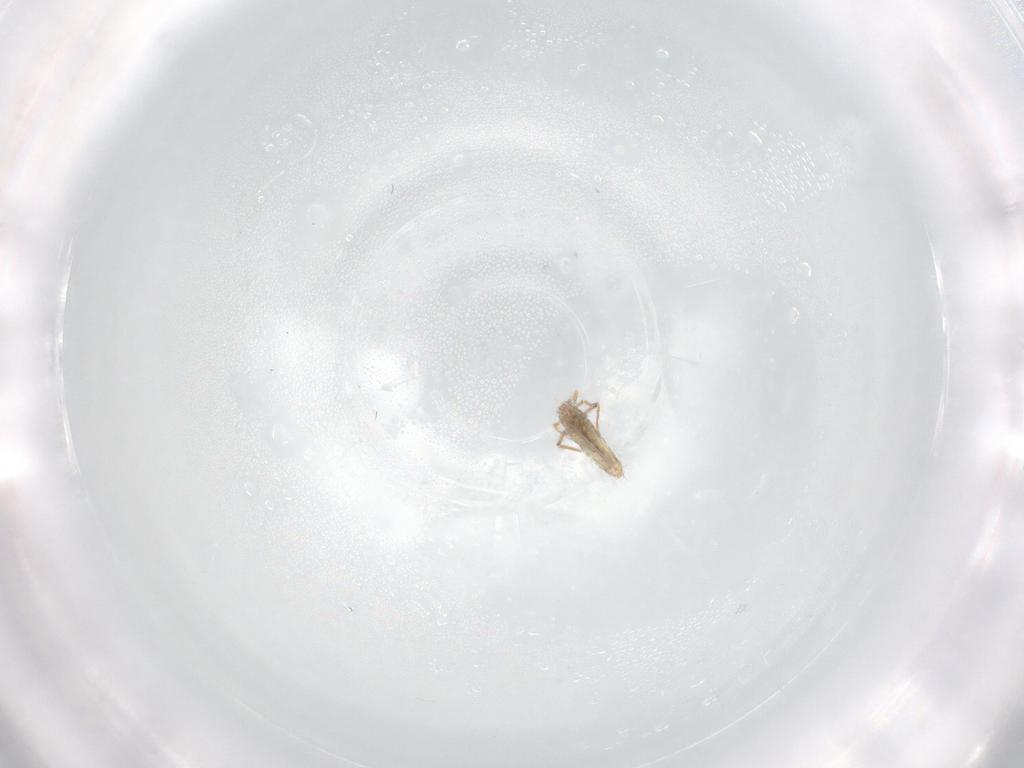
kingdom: Animalia
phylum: Arthropoda
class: Collembola
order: Entomobryomorpha
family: Entomobryidae
